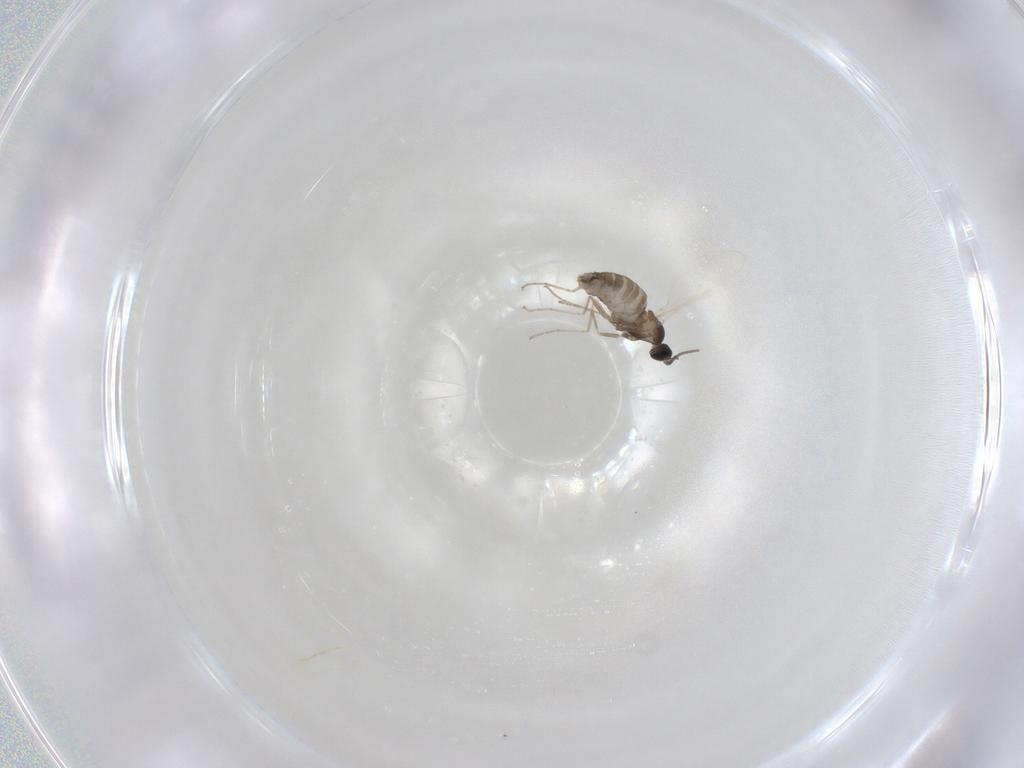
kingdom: Animalia
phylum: Arthropoda
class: Insecta
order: Diptera
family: Cecidomyiidae
